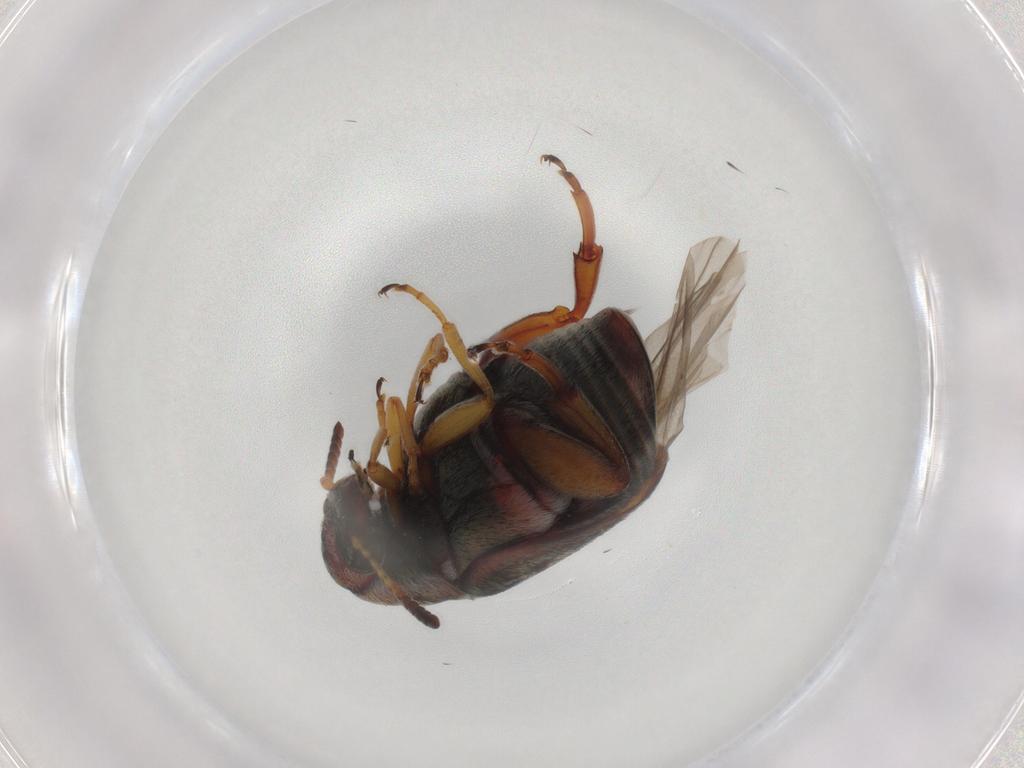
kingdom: Animalia
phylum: Arthropoda
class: Insecta
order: Coleoptera
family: Chrysomelidae
